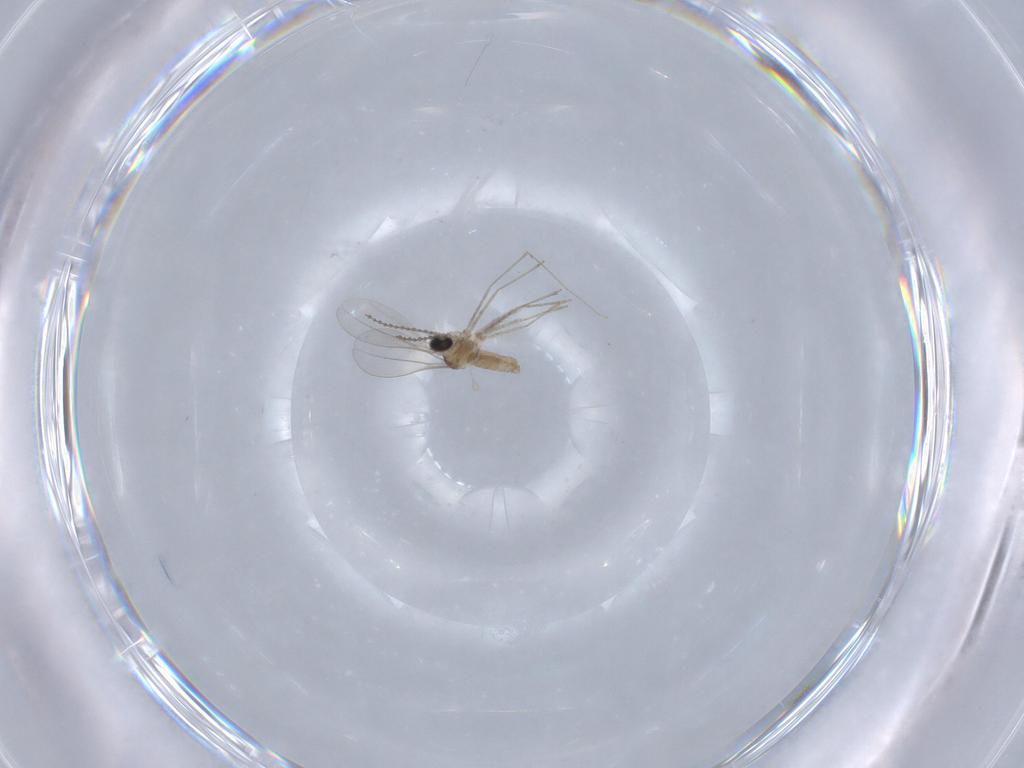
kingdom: Animalia
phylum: Arthropoda
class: Insecta
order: Diptera
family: Cecidomyiidae
